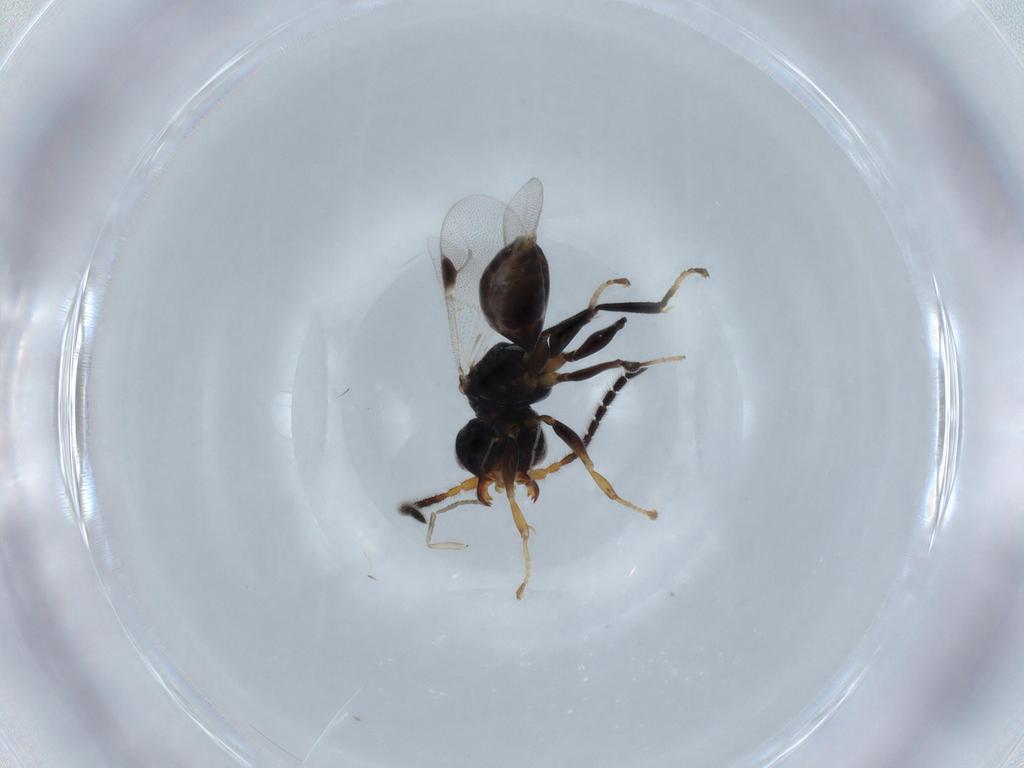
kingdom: Animalia
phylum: Arthropoda
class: Insecta
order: Hymenoptera
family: Dryinidae
